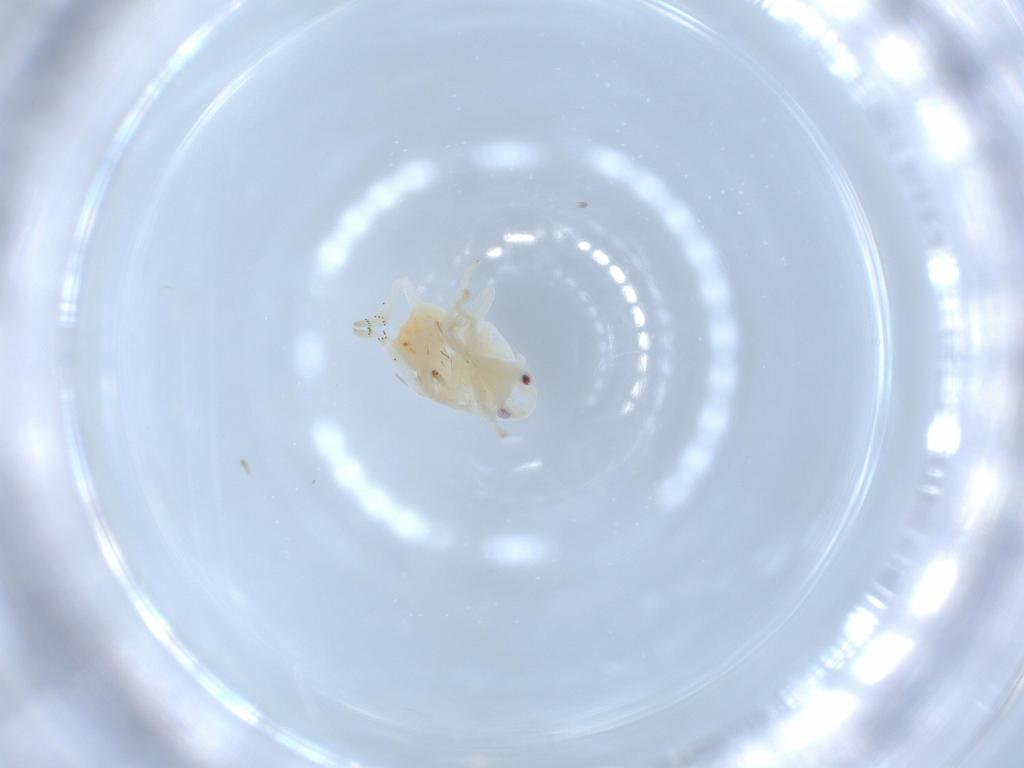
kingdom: Animalia
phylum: Arthropoda
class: Insecta
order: Hemiptera
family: Flatidae
